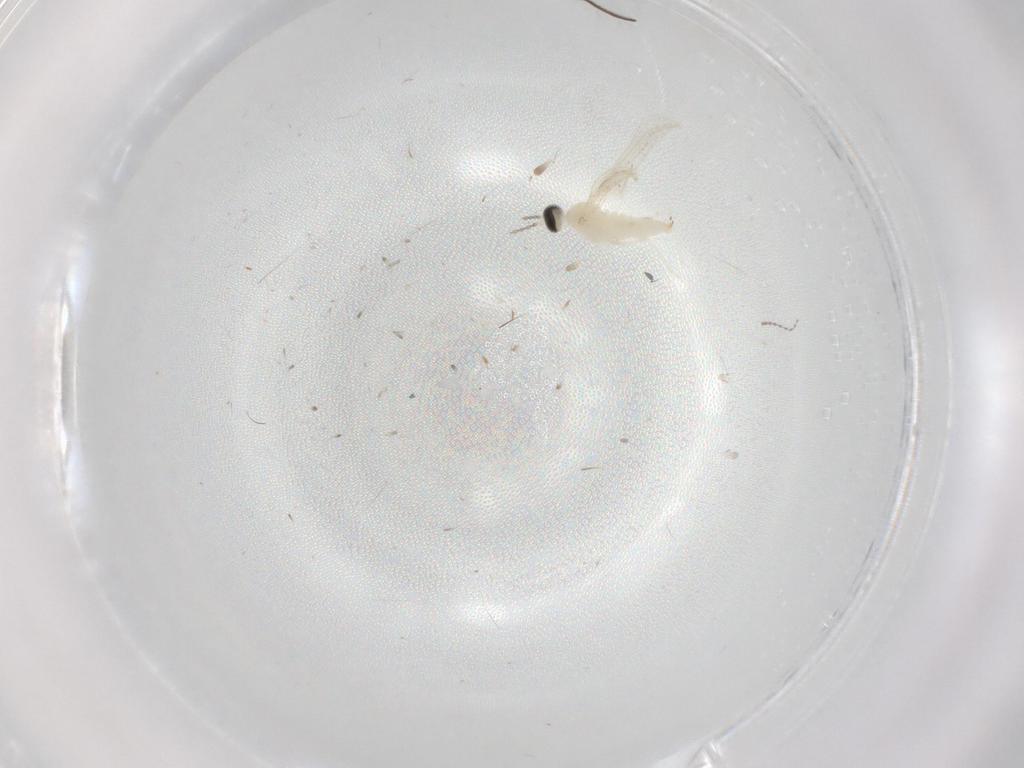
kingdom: Animalia
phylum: Arthropoda
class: Insecta
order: Diptera
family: Cecidomyiidae
